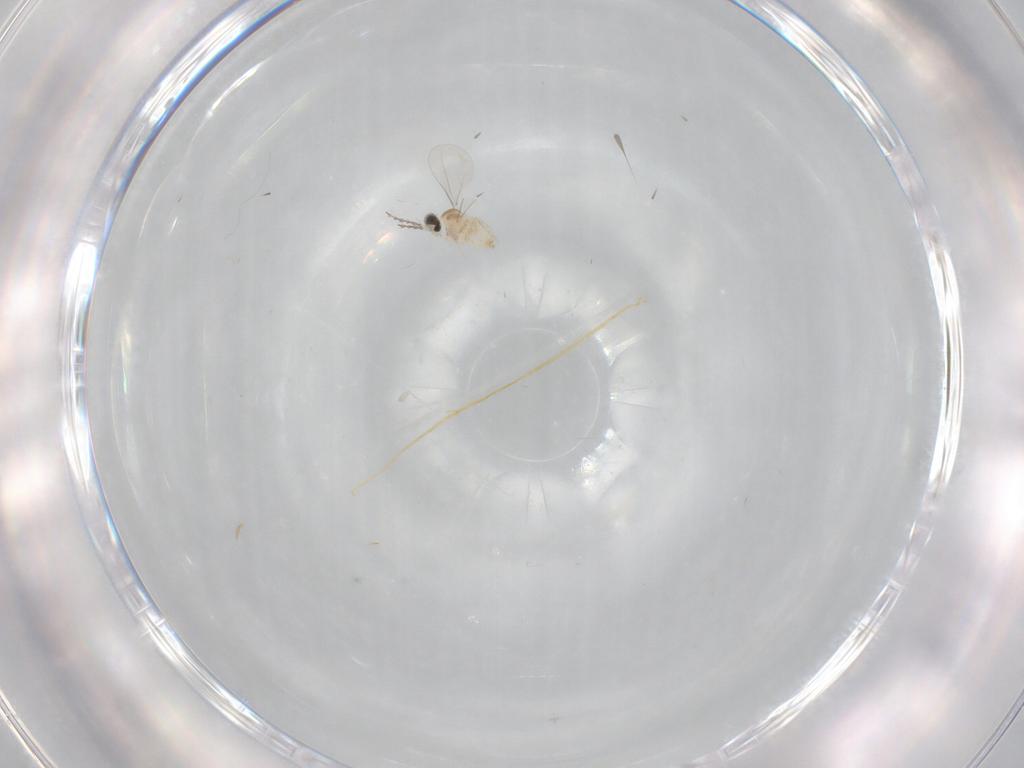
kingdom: Animalia
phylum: Arthropoda
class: Insecta
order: Diptera
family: Cecidomyiidae
